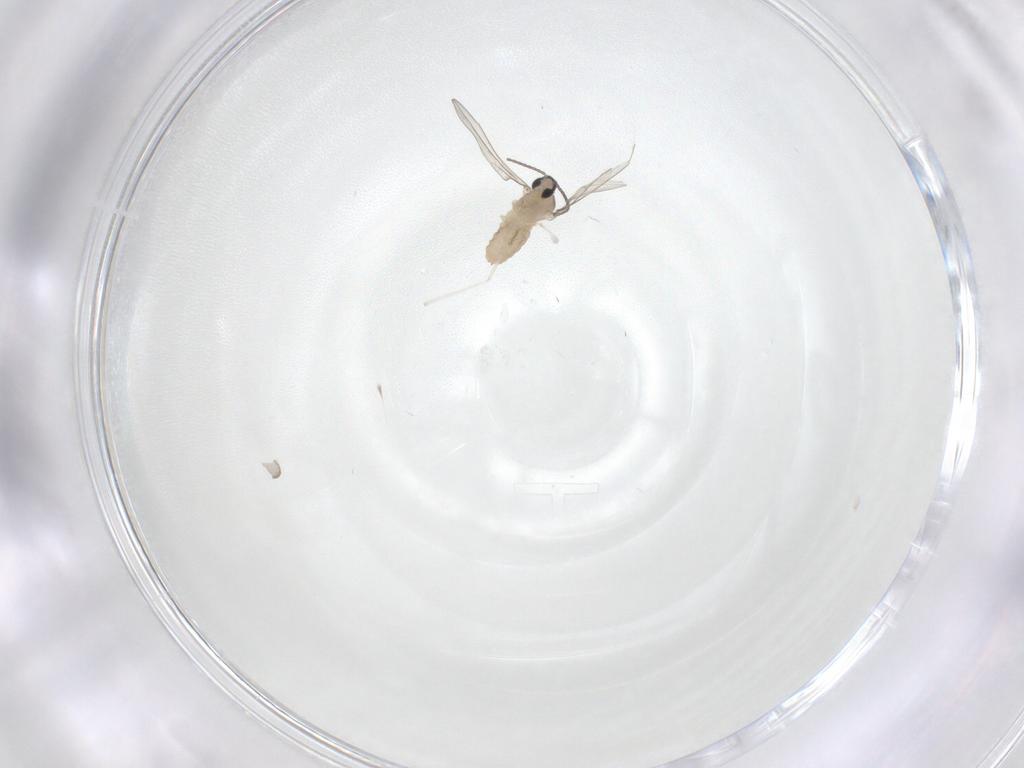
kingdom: Animalia
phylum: Arthropoda
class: Insecta
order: Diptera
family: Cecidomyiidae
